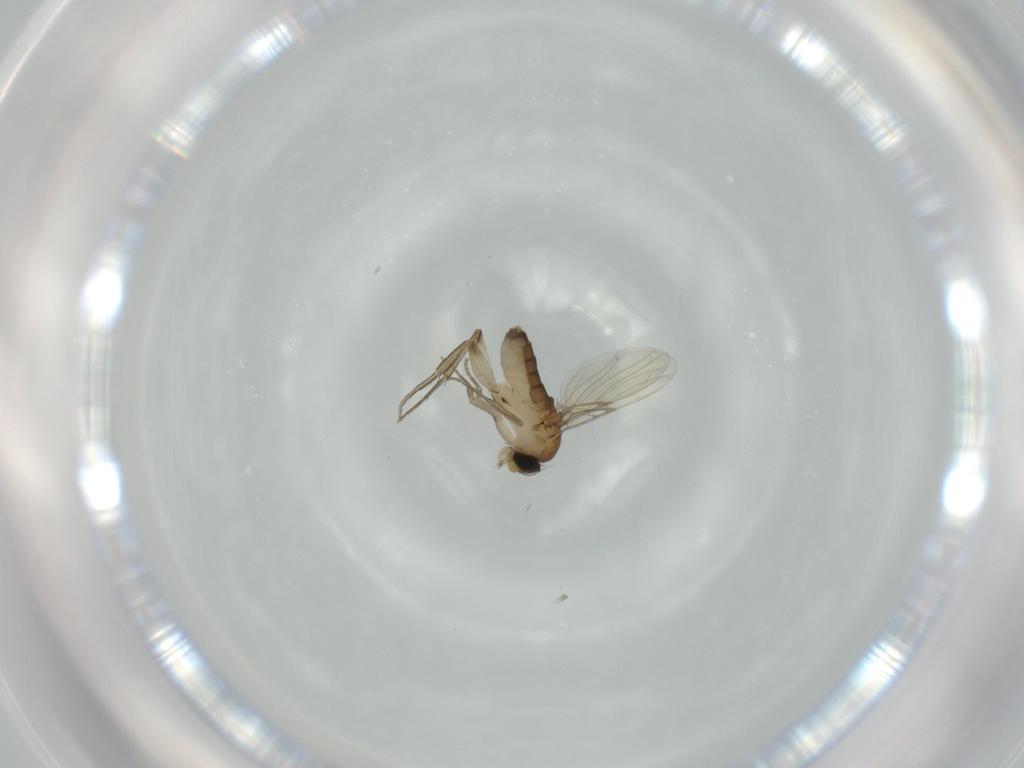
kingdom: Animalia
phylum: Arthropoda
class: Insecta
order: Diptera
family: Phoridae
